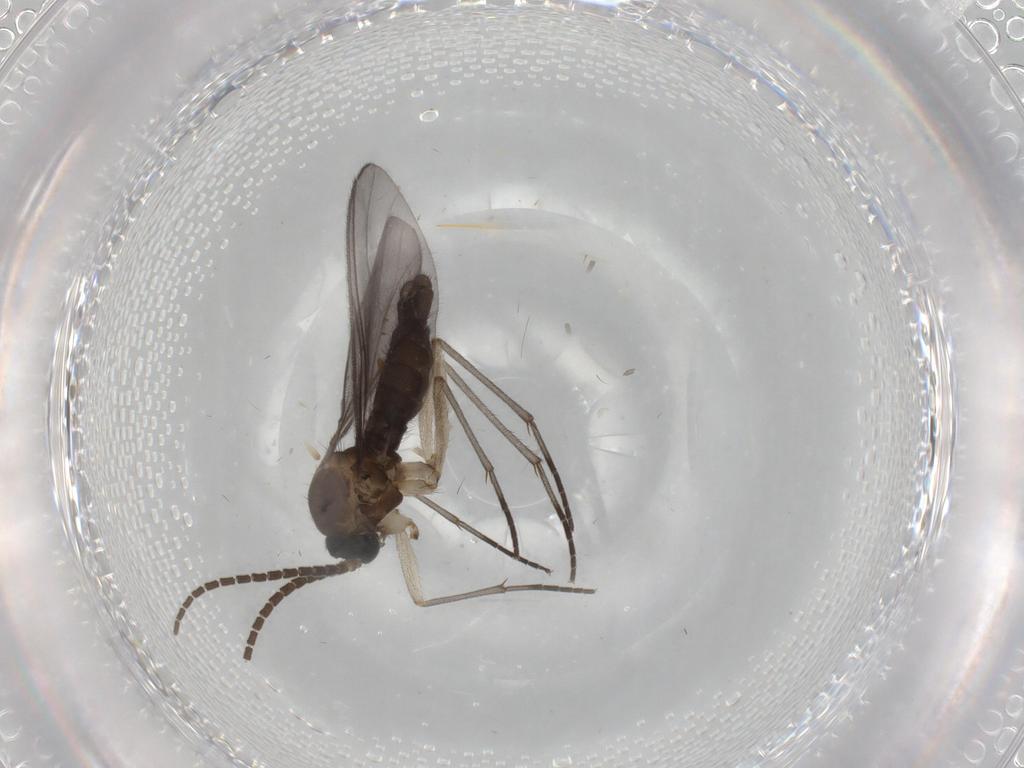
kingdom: Animalia
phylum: Arthropoda
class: Insecta
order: Diptera
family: Sciaridae
